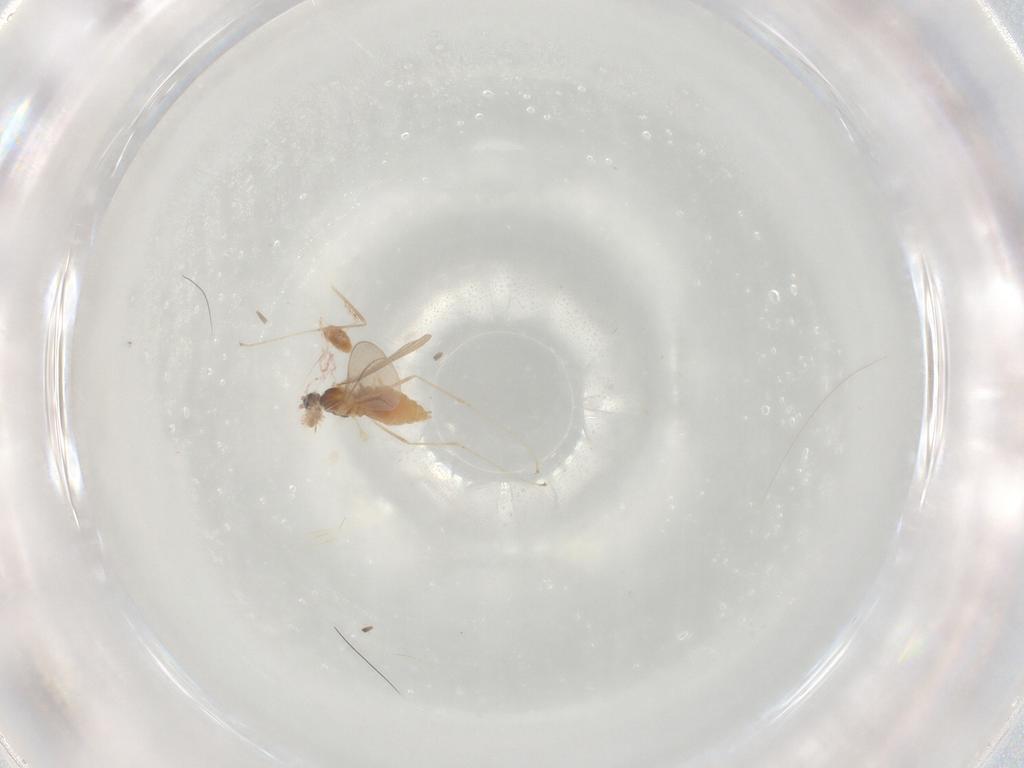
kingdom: Animalia
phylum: Arthropoda
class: Insecta
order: Diptera
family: Cecidomyiidae
